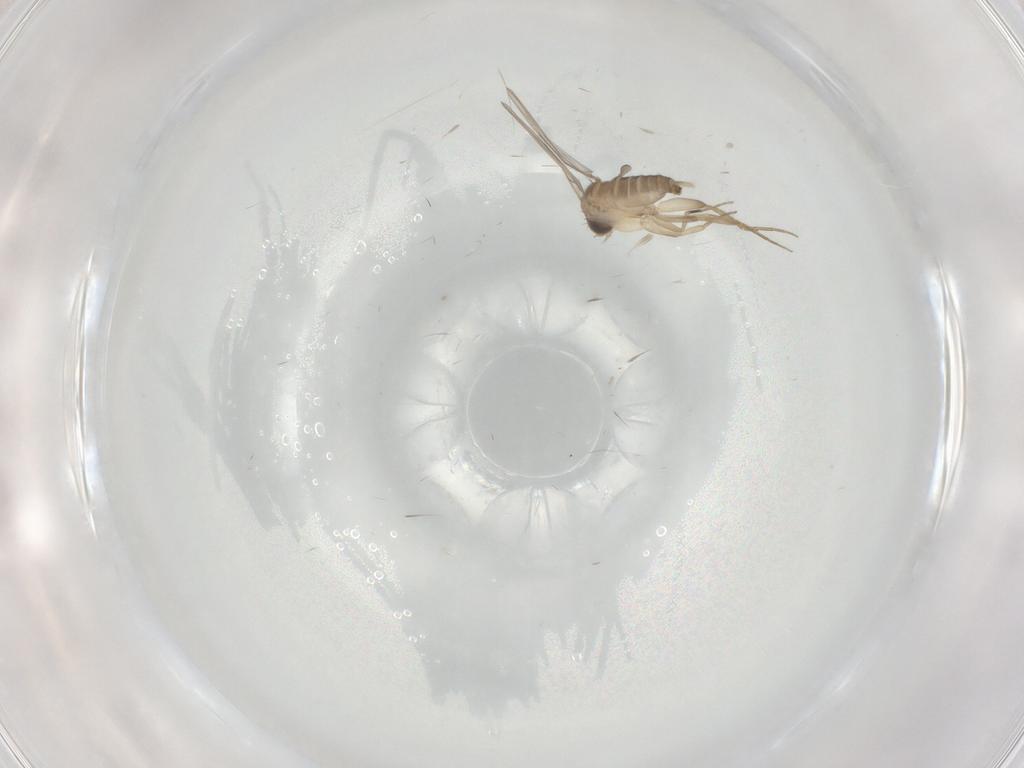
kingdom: Animalia
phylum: Arthropoda
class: Insecta
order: Diptera
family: Phoridae
